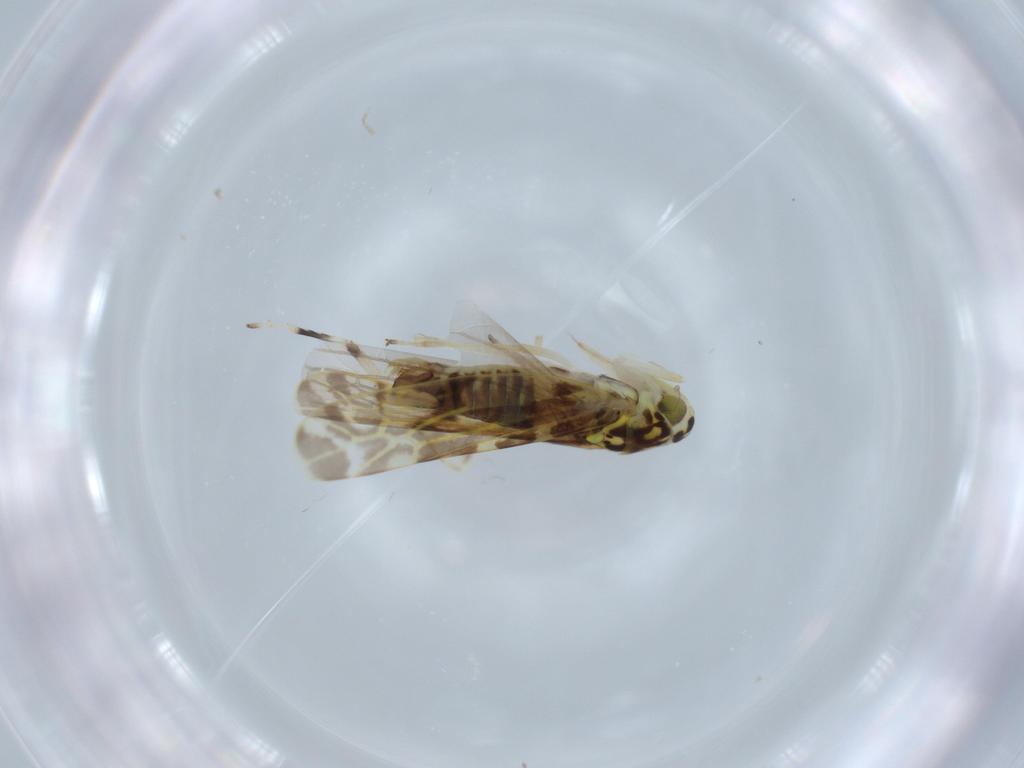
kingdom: Animalia
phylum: Arthropoda
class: Insecta
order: Hemiptera
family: Cicadellidae
